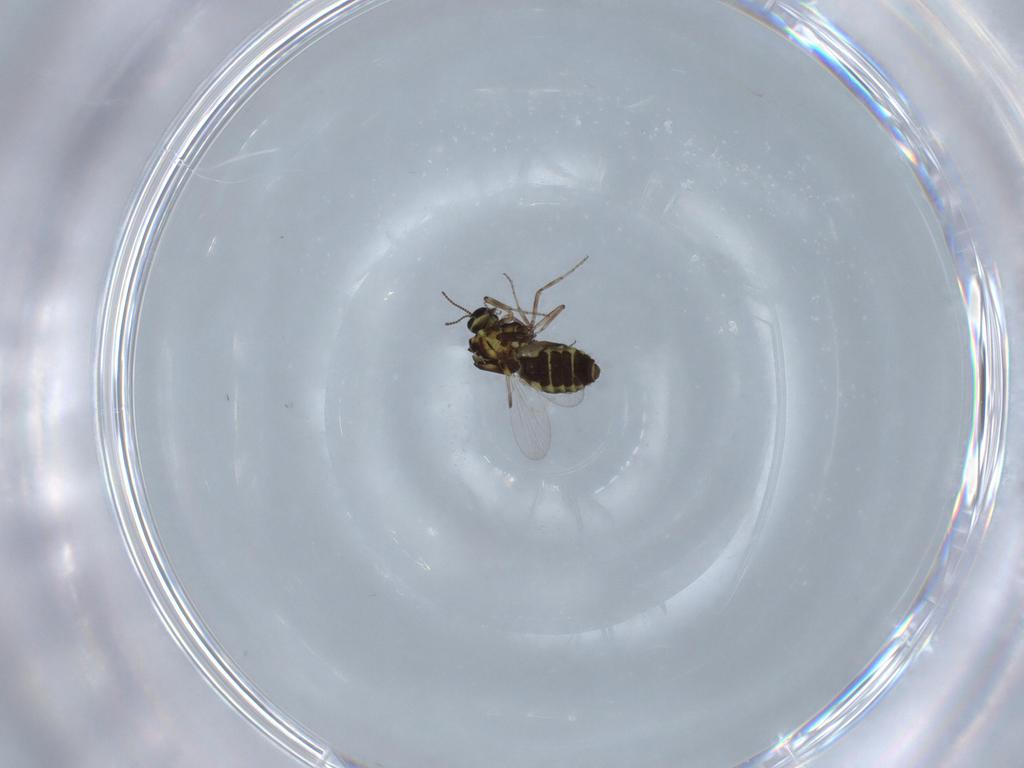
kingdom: Animalia
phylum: Arthropoda
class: Insecta
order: Diptera
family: Ceratopogonidae
